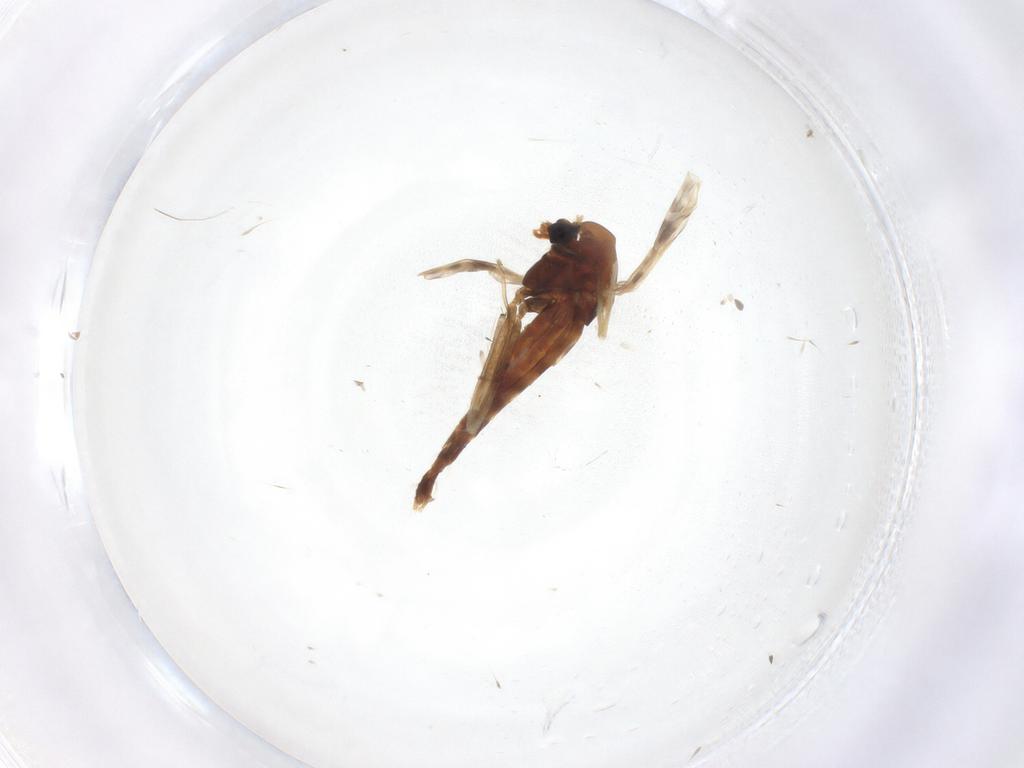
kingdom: Animalia
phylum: Arthropoda
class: Insecta
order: Diptera
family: Chironomidae
